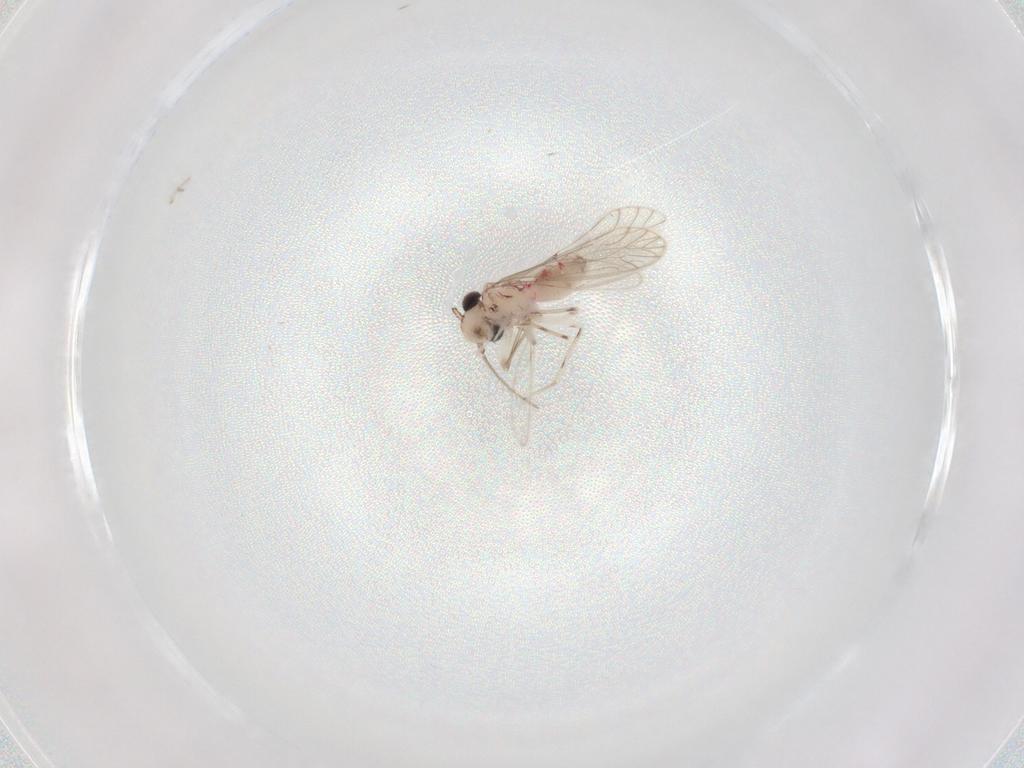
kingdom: Animalia
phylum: Arthropoda
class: Insecta
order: Psocodea
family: Caeciliusidae
